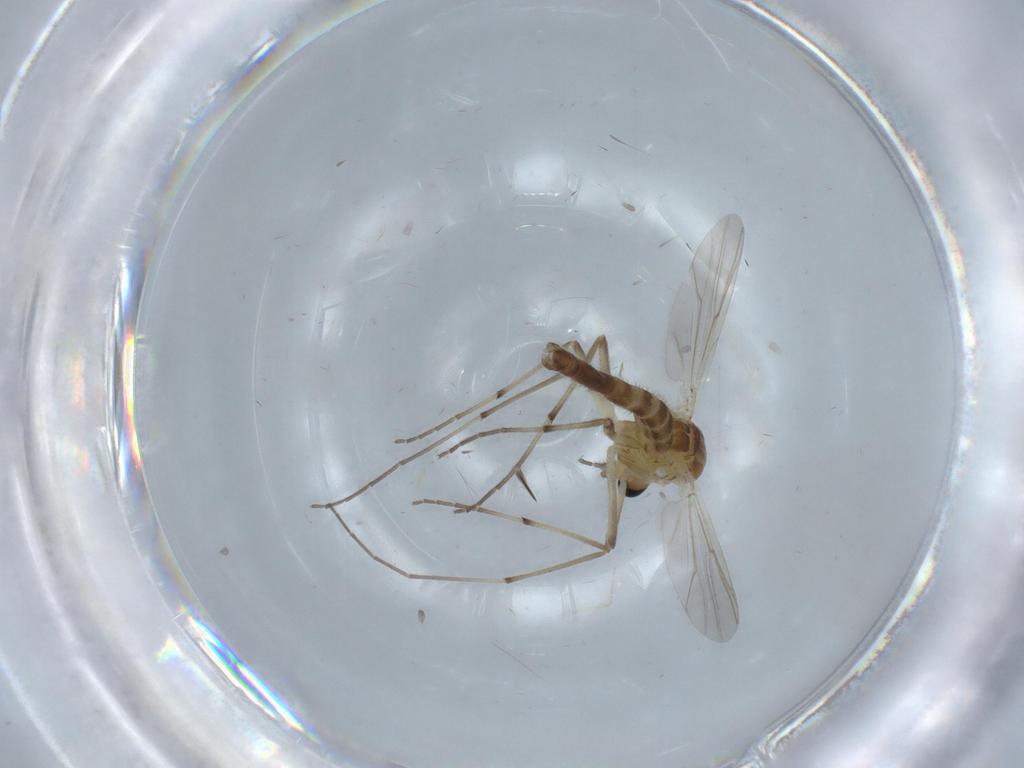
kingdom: Animalia
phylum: Arthropoda
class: Insecta
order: Diptera
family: Chironomidae
